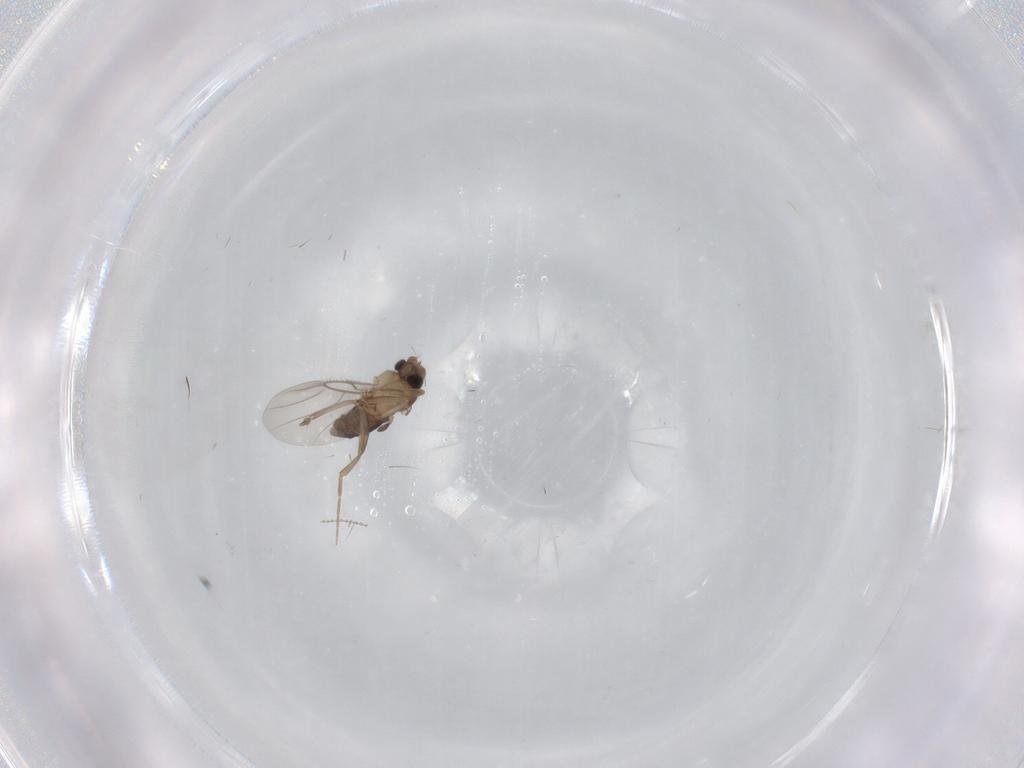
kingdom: Animalia
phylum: Arthropoda
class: Insecta
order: Diptera
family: Phoridae
